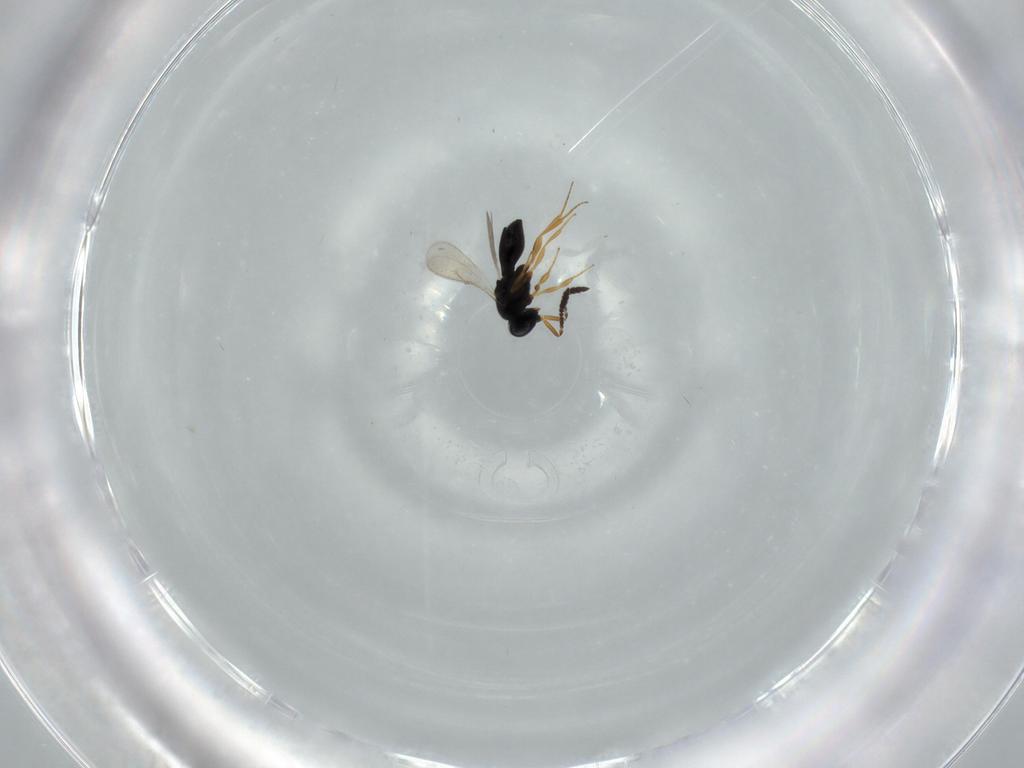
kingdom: Animalia
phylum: Arthropoda
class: Insecta
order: Hymenoptera
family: Scelionidae
